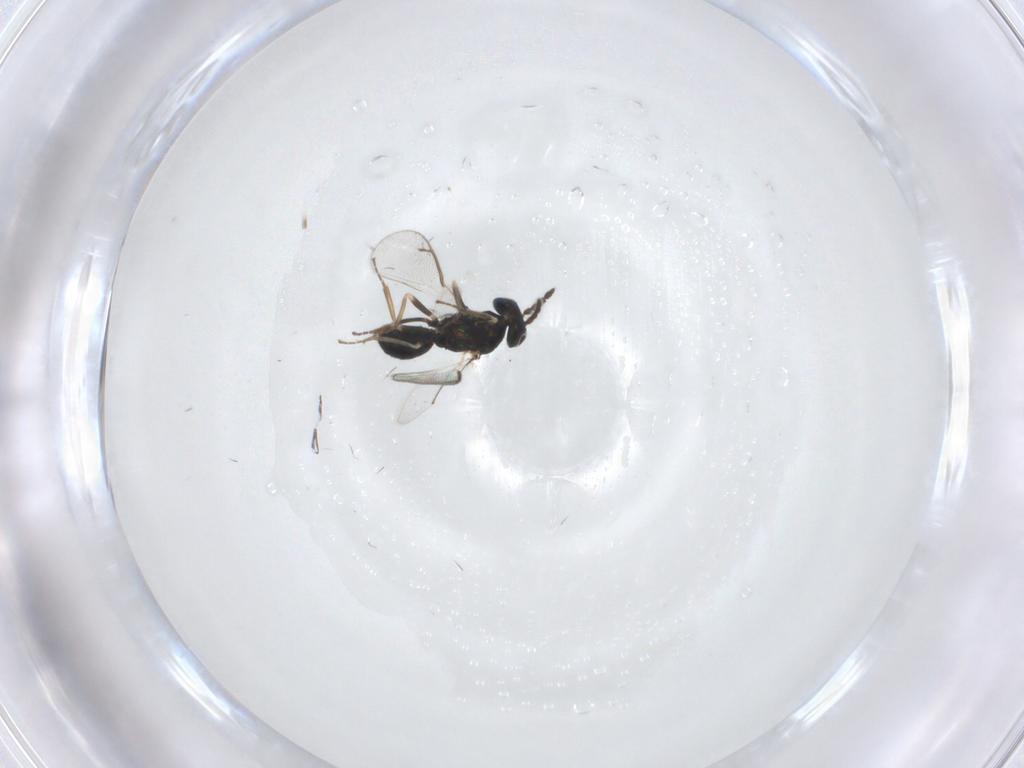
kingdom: Animalia
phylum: Arthropoda
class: Insecta
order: Hymenoptera
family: Eulophidae
